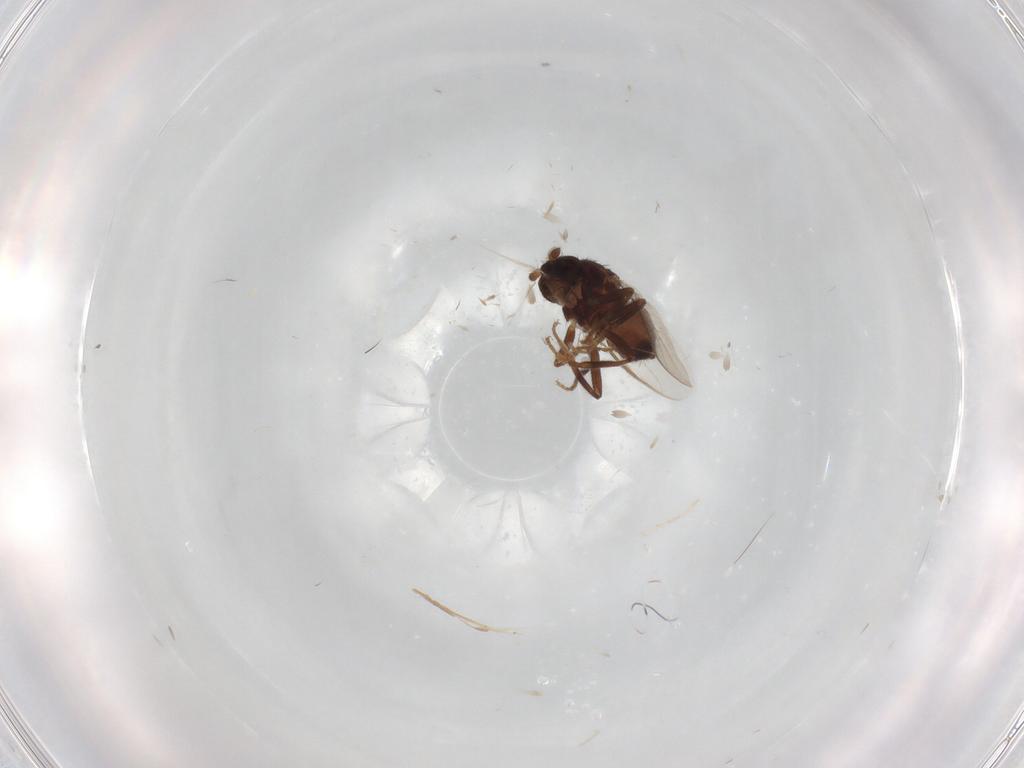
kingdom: Animalia
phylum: Arthropoda
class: Insecta
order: Diptera
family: Sphaeroceridae
